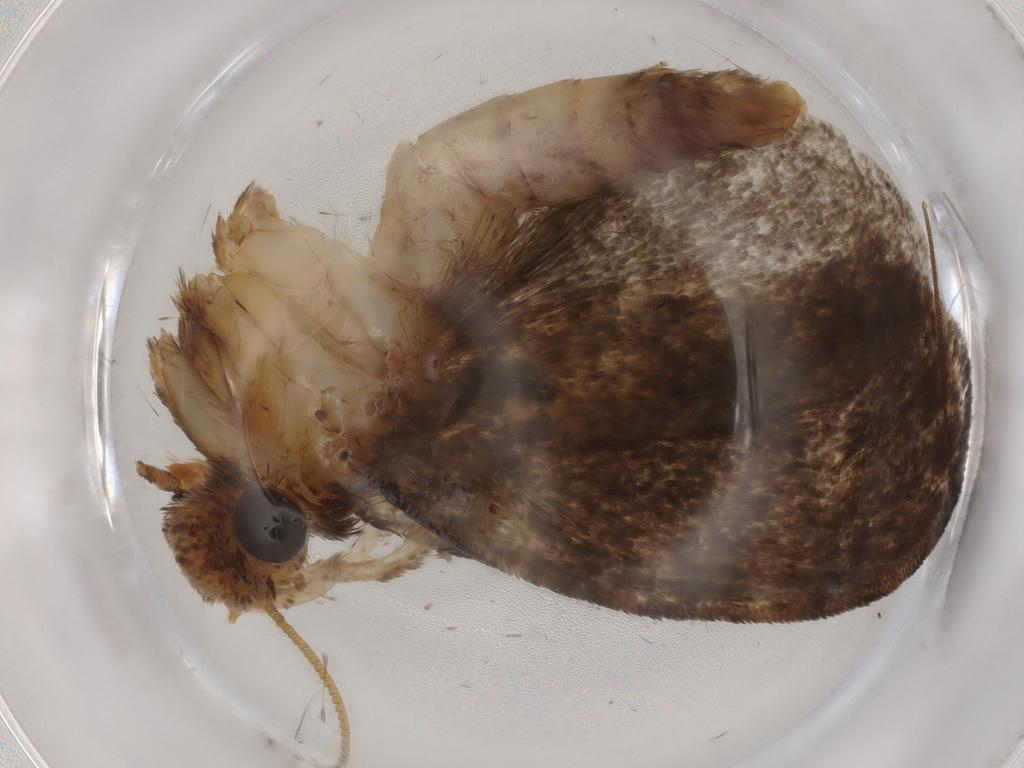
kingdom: Animalia
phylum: Arthropoda
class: Insecta
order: Lepidoptera
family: Tineidae
